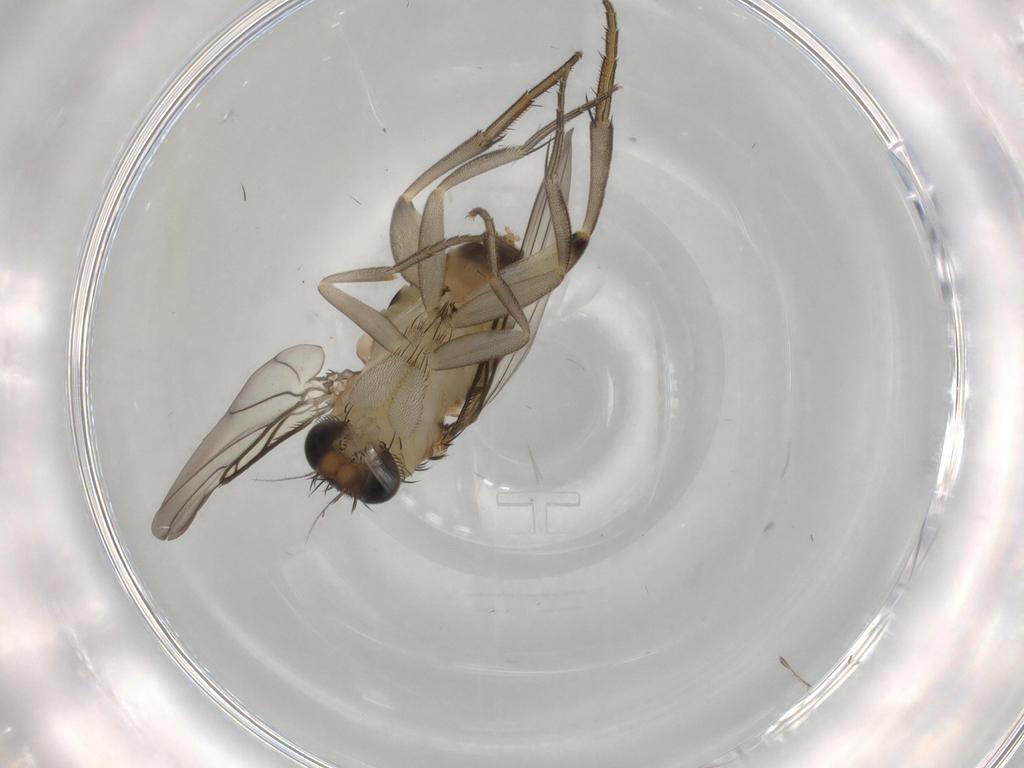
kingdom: Animalia
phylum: Arthropoda
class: Insecta
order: Diptera
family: Phoridae
